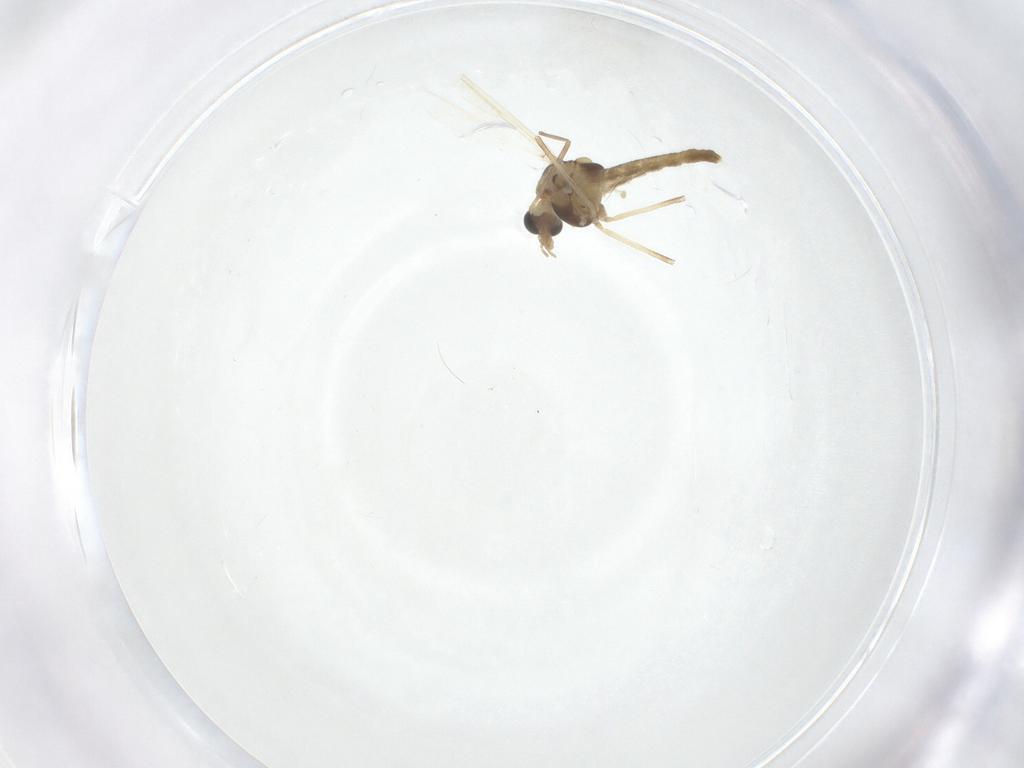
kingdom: Animalia
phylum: Arthropoda
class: Insecta
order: Diptera
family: Chironomidae
